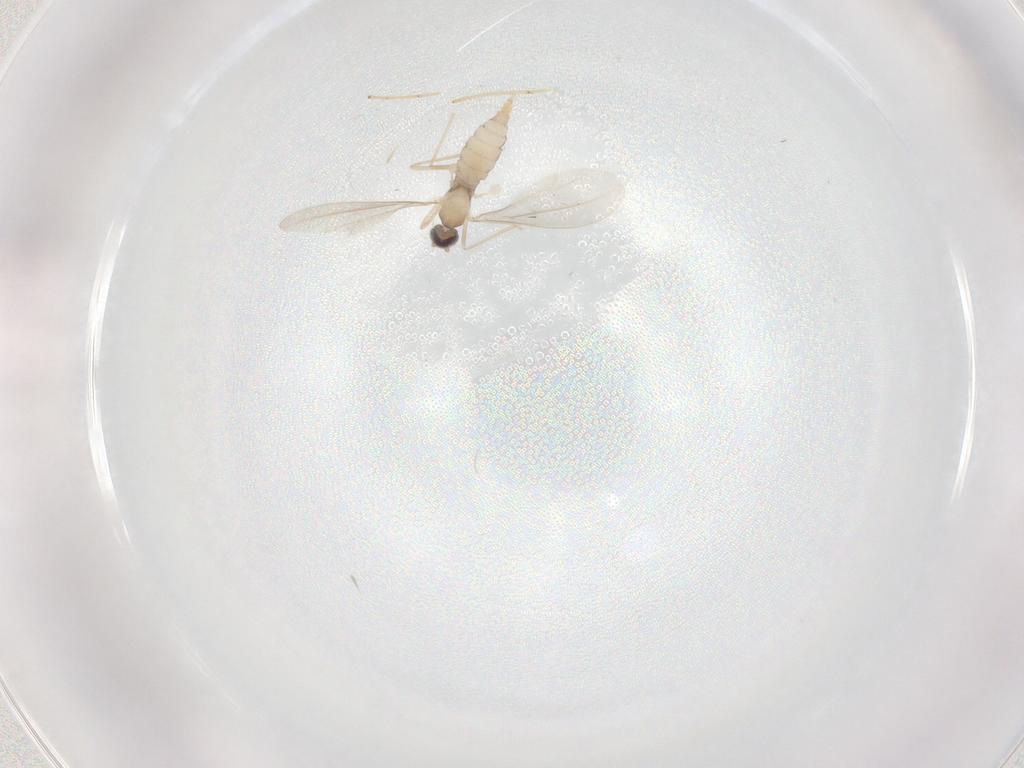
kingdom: Animalia
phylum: Arthropoda
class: Insecta
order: Diptera
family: Cecidomyiidae
